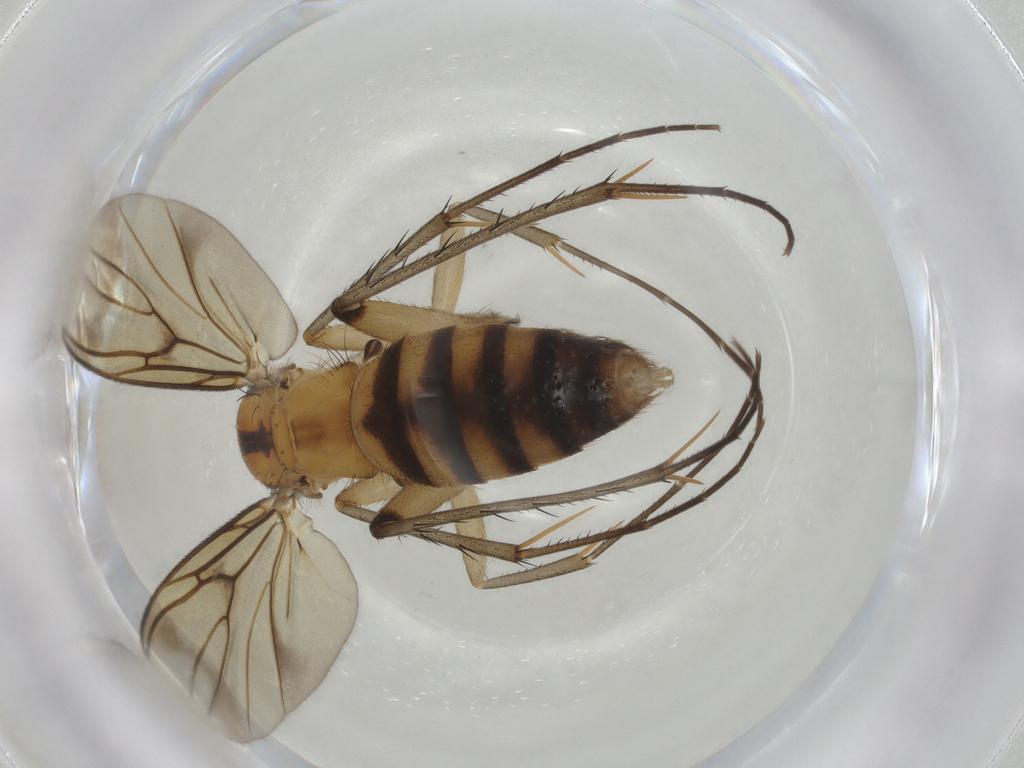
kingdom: Animalia
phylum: Arthropoda
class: Insecta
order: Diptera
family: Mycetophilidae
